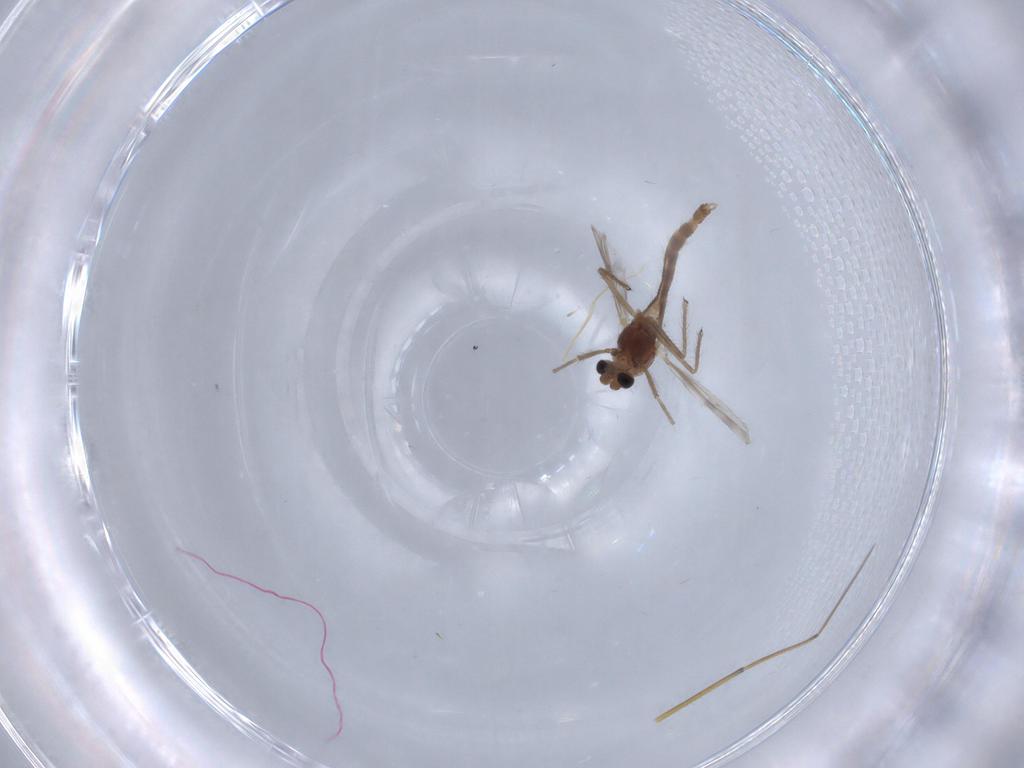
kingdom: Animalia
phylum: Arthropoda
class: Insecta
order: Diptera
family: Chironomidae
